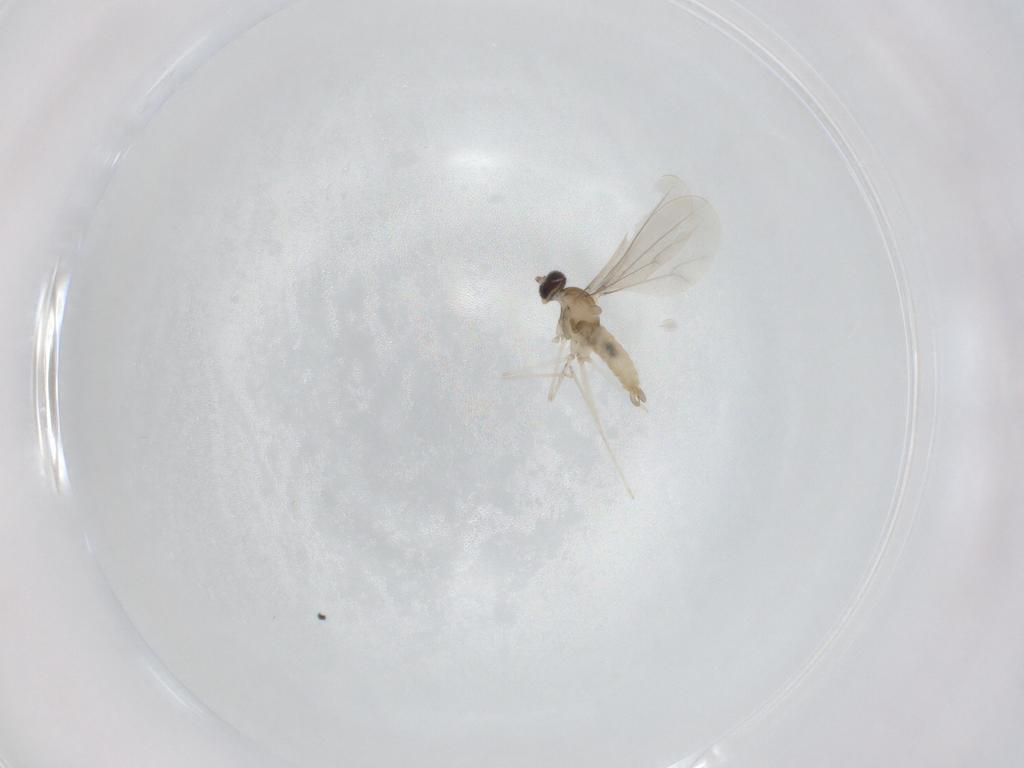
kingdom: Animalia
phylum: Arthropoda
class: Insecta
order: Diptera
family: Cecidomyiidae
